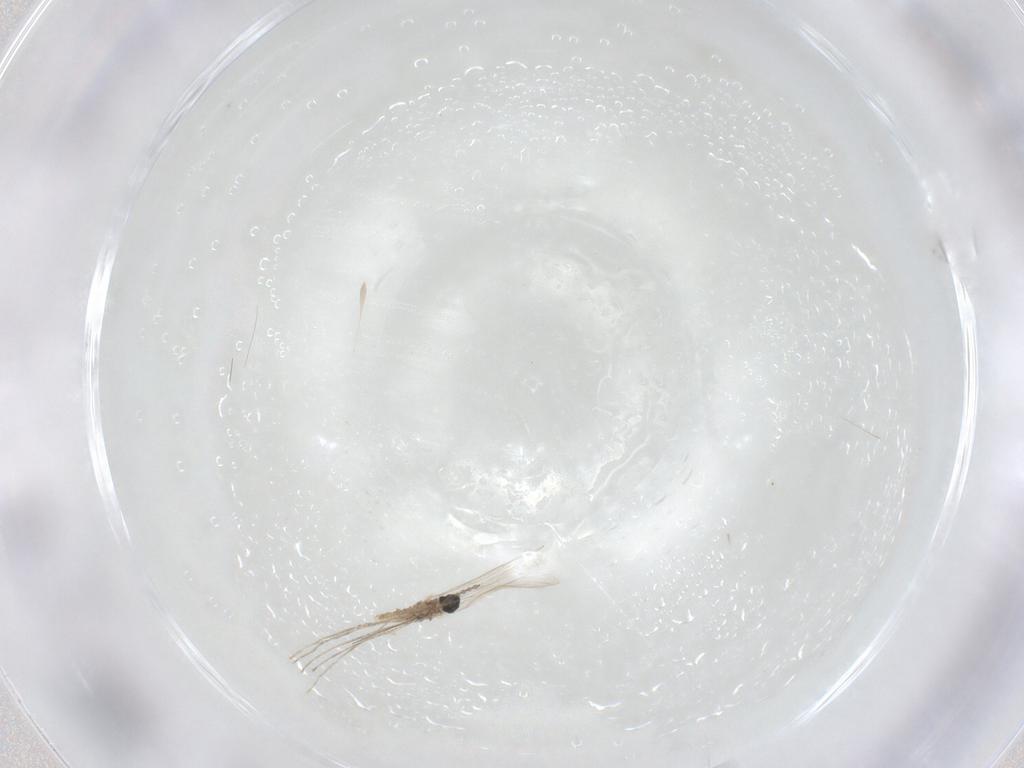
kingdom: Animalia
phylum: Arthropoda
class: Insecta
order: Diptera
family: Cecidomyiidae
